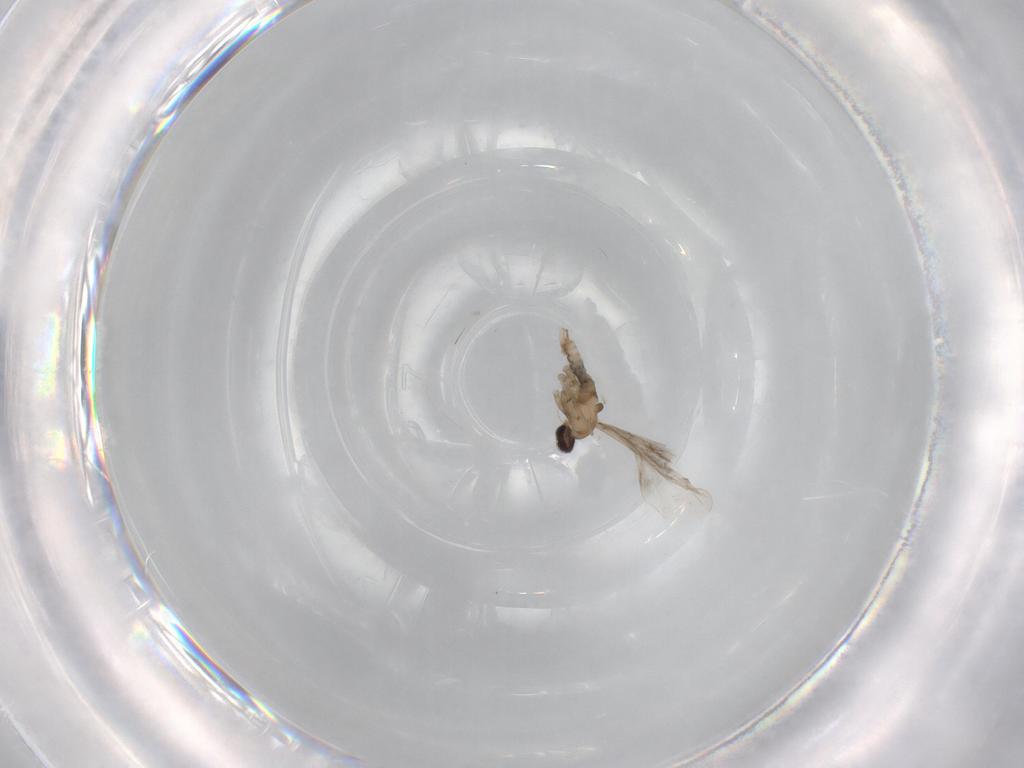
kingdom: Animalia
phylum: Arthropoda
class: Insecta
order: Diptera
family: Cecidomyiidae
